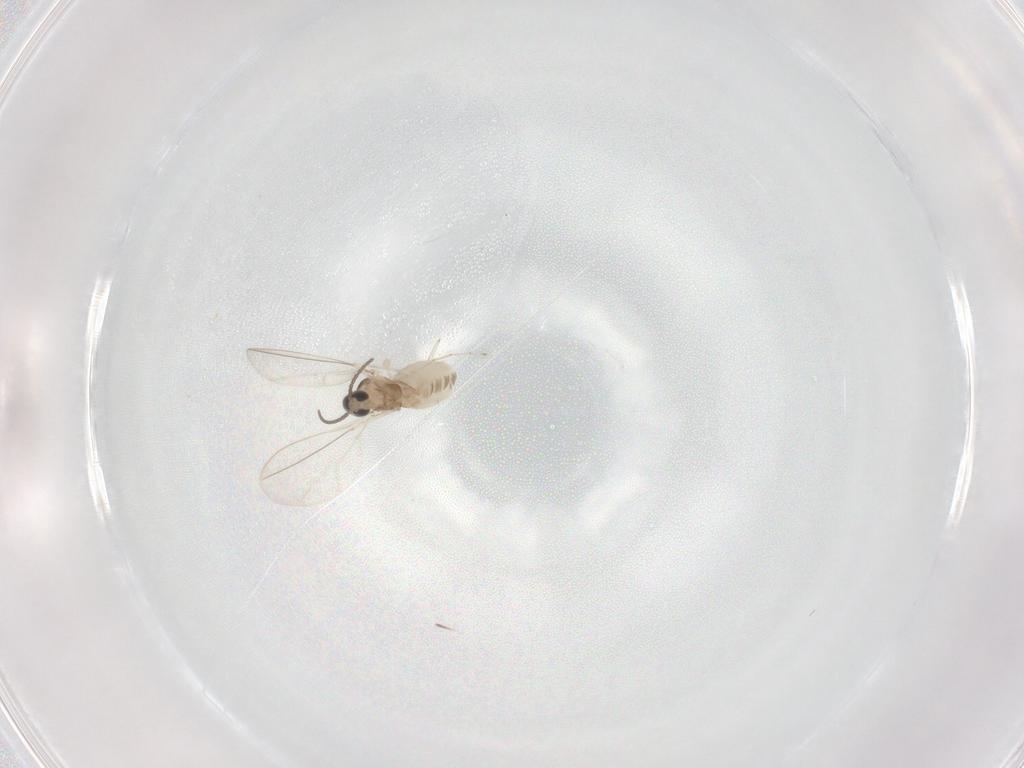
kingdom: Animalia
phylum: Arthropoda
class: Insecta
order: Diptera
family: Cecidomyiidae
